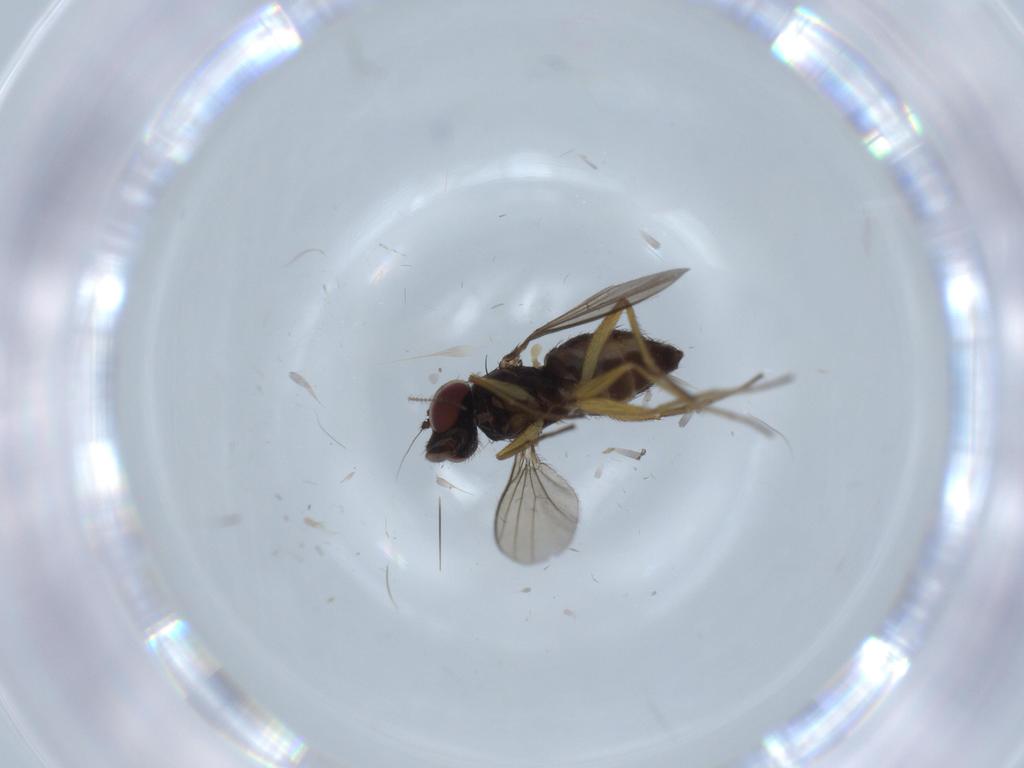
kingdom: Animalia
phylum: Arthropoda
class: Insecta
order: Diptera
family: Dolichopodidae
